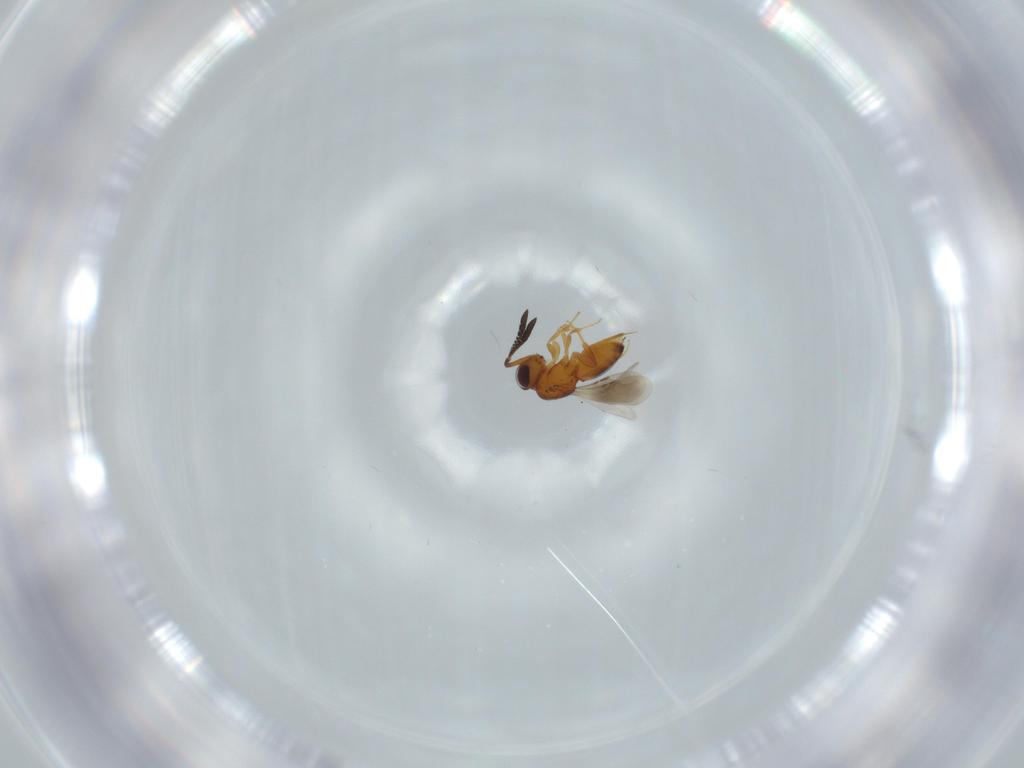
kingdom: Animalia
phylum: Arthropoda
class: Insecta
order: Hymenoptera
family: Ceraphronidae
